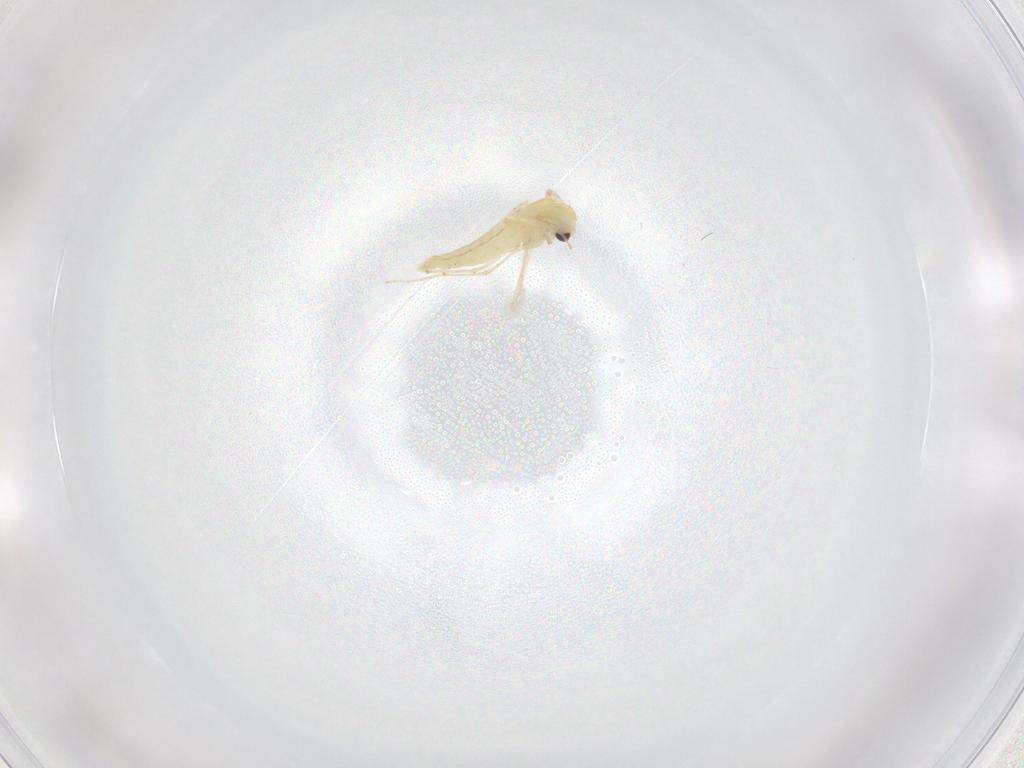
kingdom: Animalia
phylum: Arthropoda
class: Insecta
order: Diptera
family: Chironomidae
